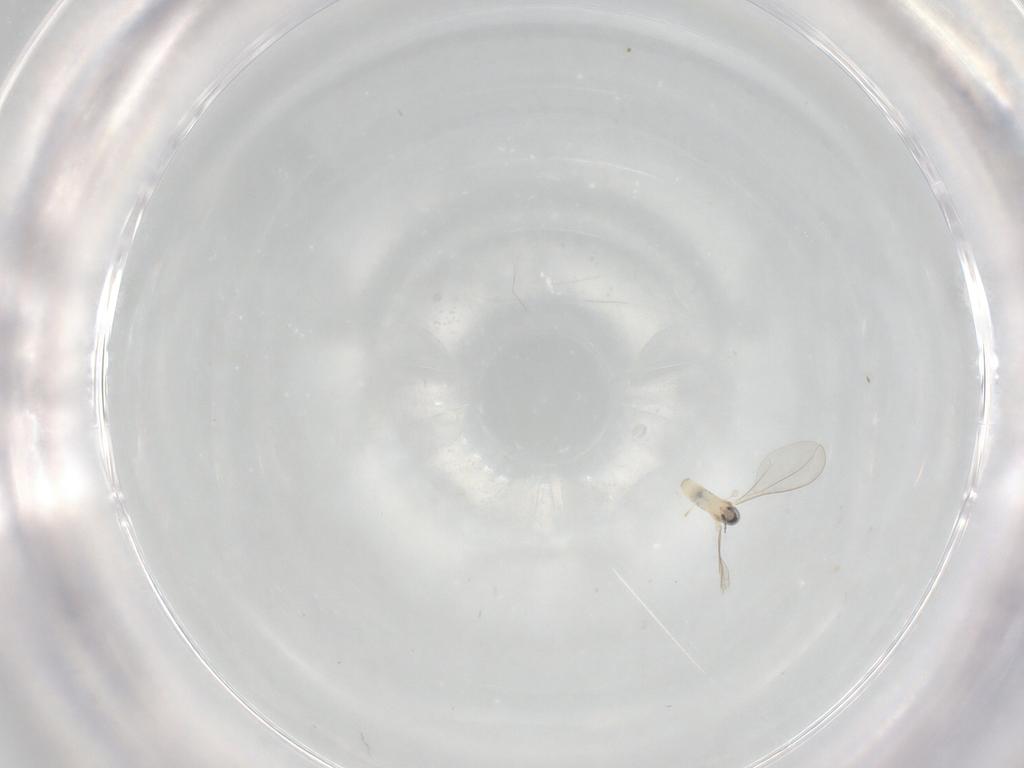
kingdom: Animalia
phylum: Arthropoda
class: Insecta
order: Diptera
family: Cecidomyiidae
